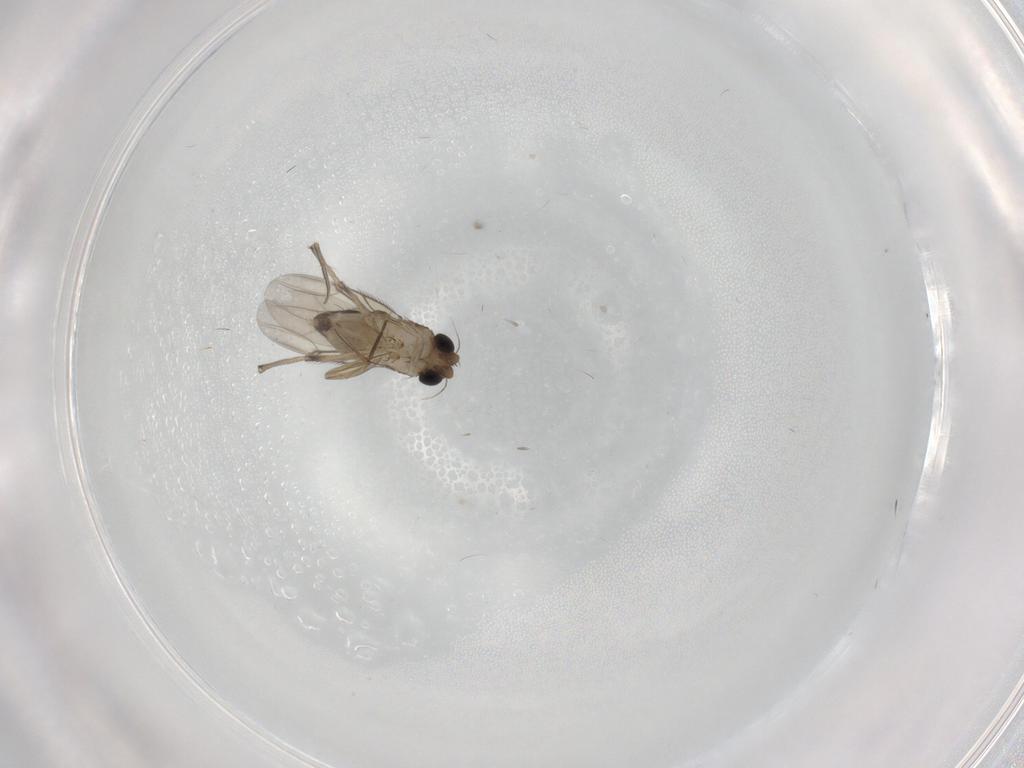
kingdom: Animalia
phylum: Arthropoda
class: Insecta
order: Diptera
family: Phoridae
